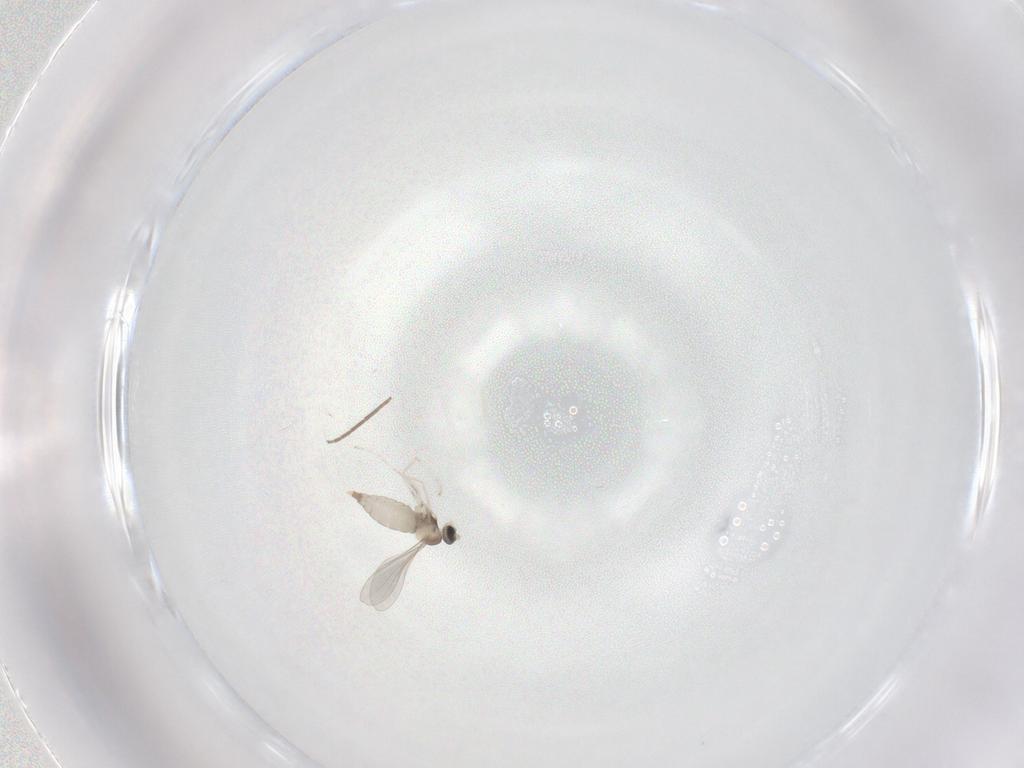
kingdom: Animalia
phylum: Arthropoda
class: Insecta
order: Diptera
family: Chironomidae
